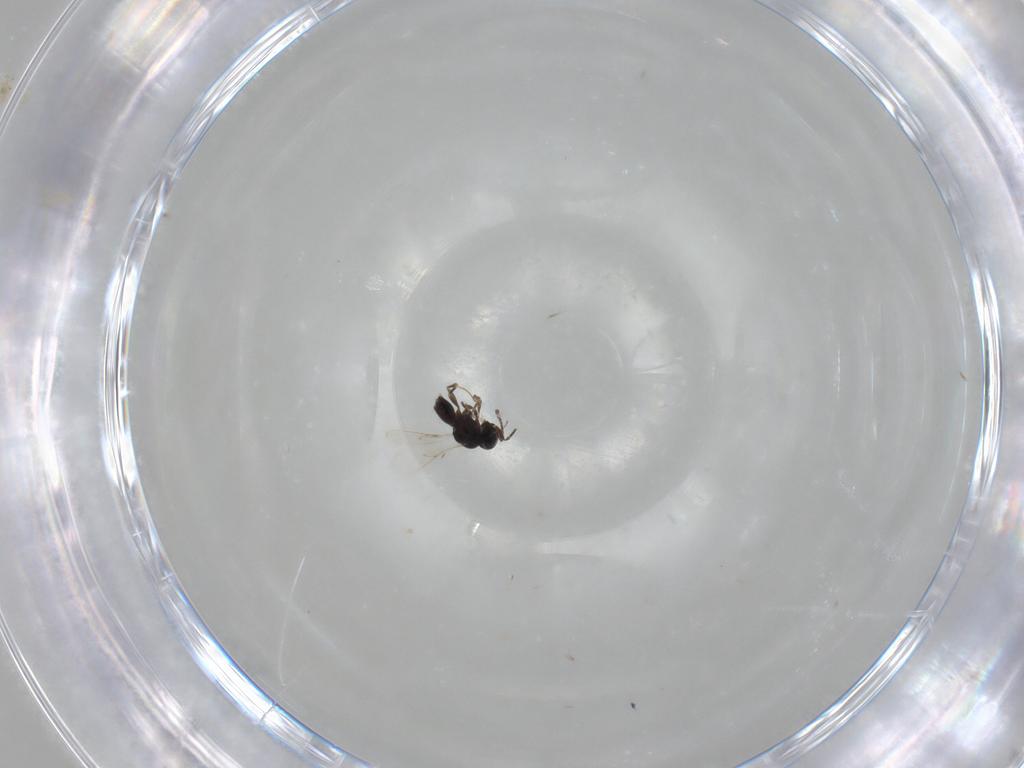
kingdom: Animalia
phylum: Arthropoda
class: Insecta
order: Hymenoptera
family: Scelionidae
